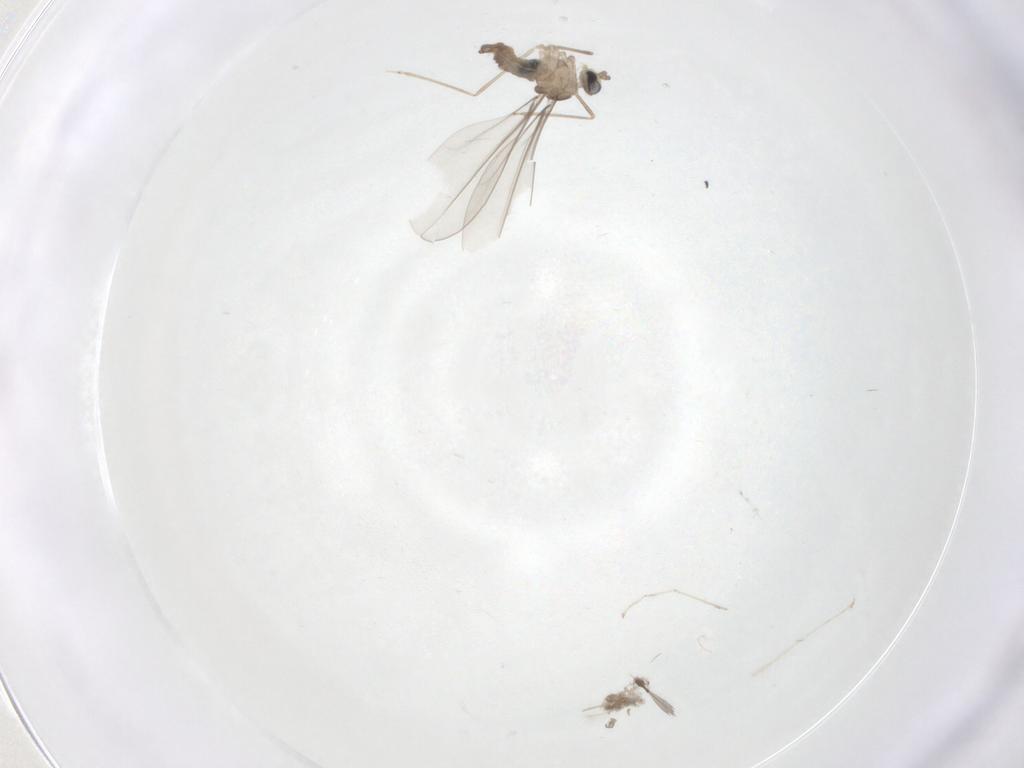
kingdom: Animalia
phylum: Arthropoda
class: Insecta
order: Diptera
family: Cecidomyiidae
